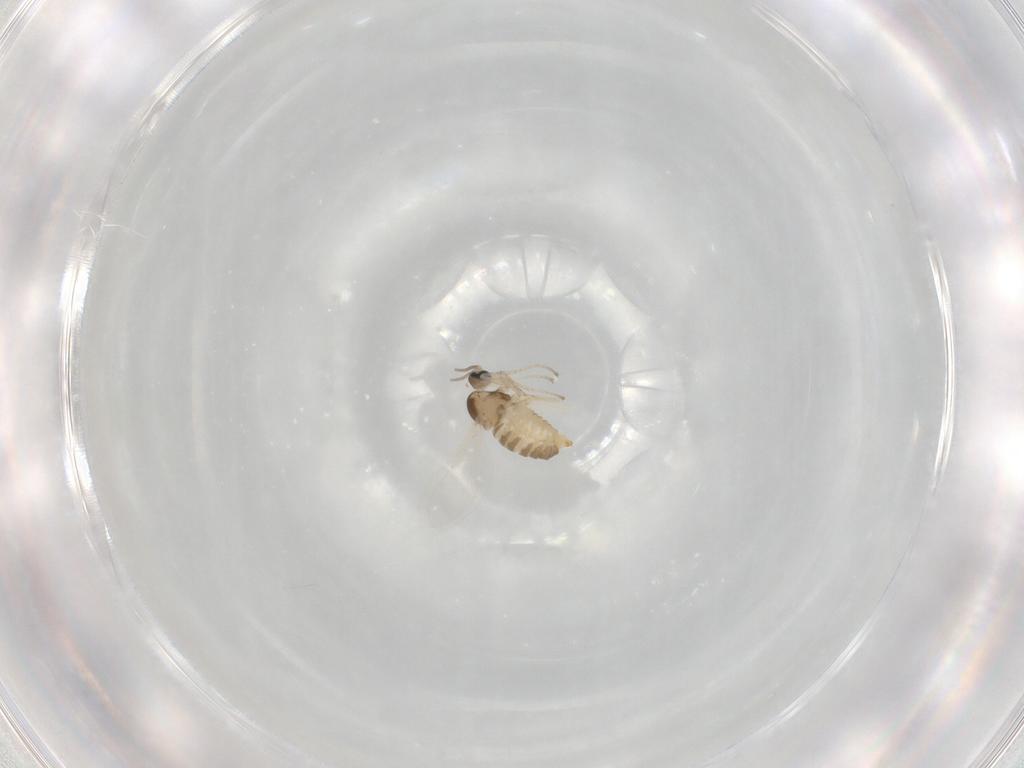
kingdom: Animalia
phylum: Arthropoda
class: Insecta
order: Diptera
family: Cecidomyiidae
